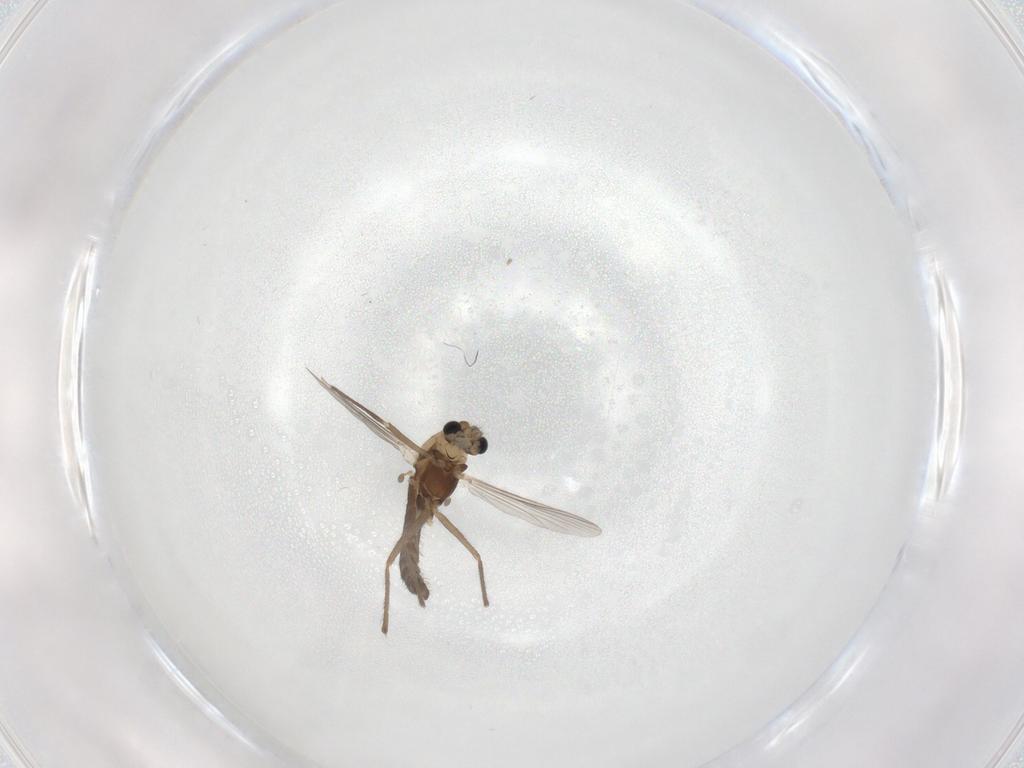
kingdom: Animalia
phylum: Arthropoda
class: Insecta
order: Diptera
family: Chironomidae
